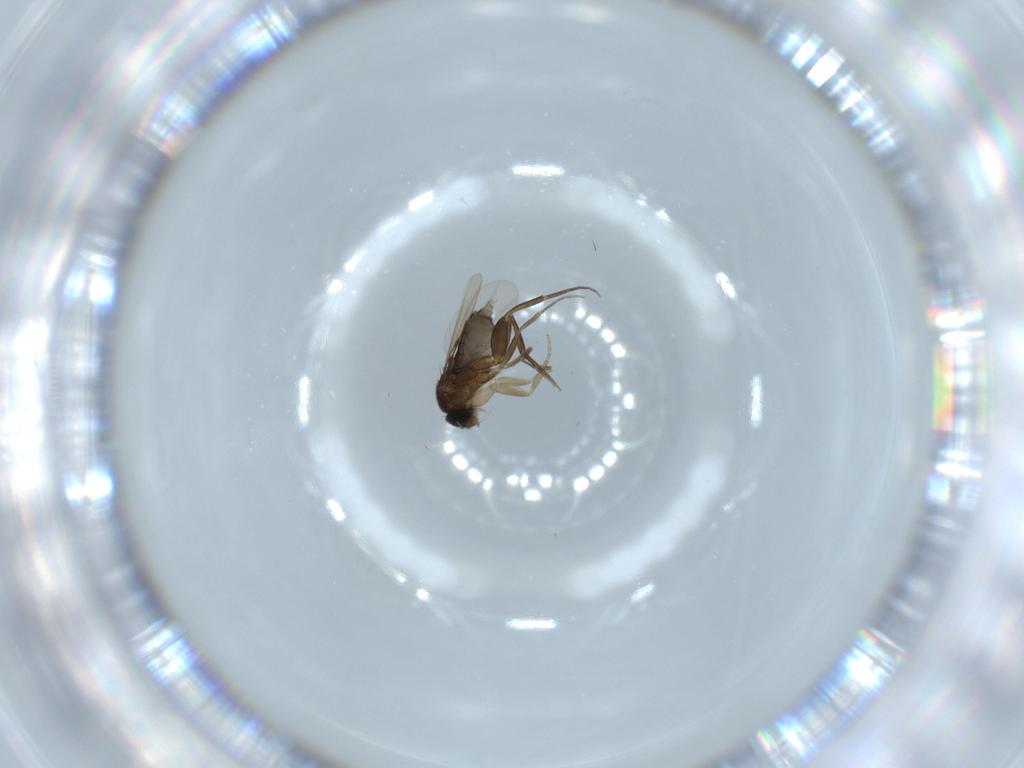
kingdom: Animalia
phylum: Arthropoda
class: Insecta
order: Diptera
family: Phoridae
